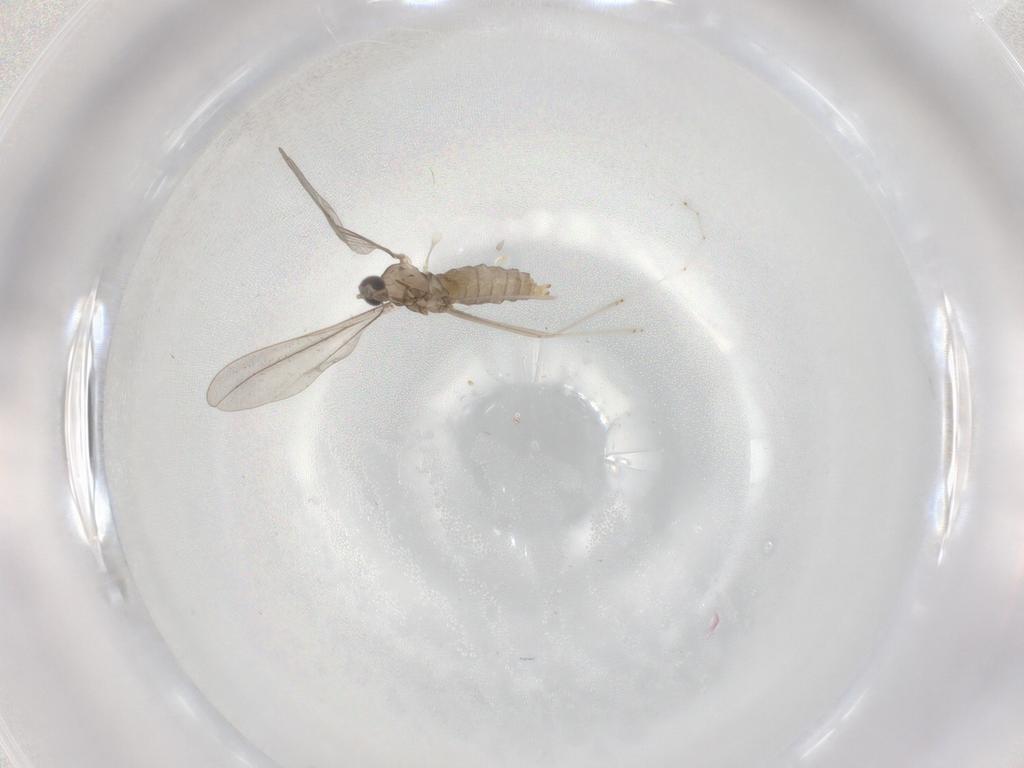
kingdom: Animalia
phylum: Arthropoda
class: Insecta
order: Diptera
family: Cecidomyiidae
